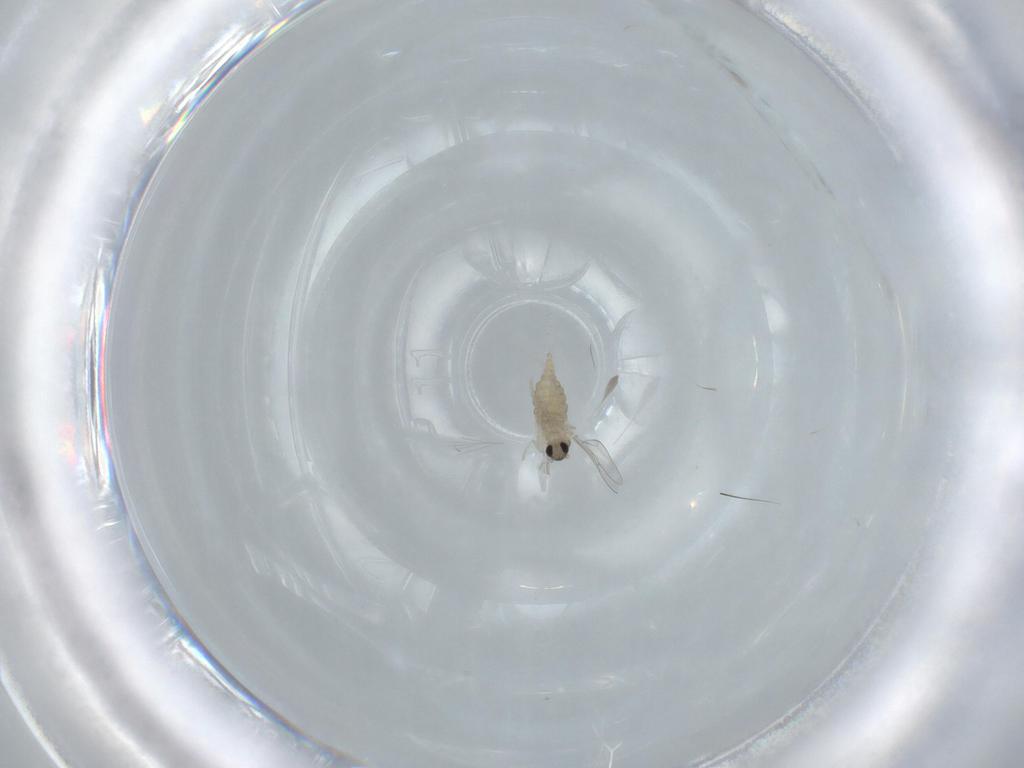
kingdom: Animalia
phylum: Arthropoda
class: Insecta
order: Diptera
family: Cecidomyiidae
